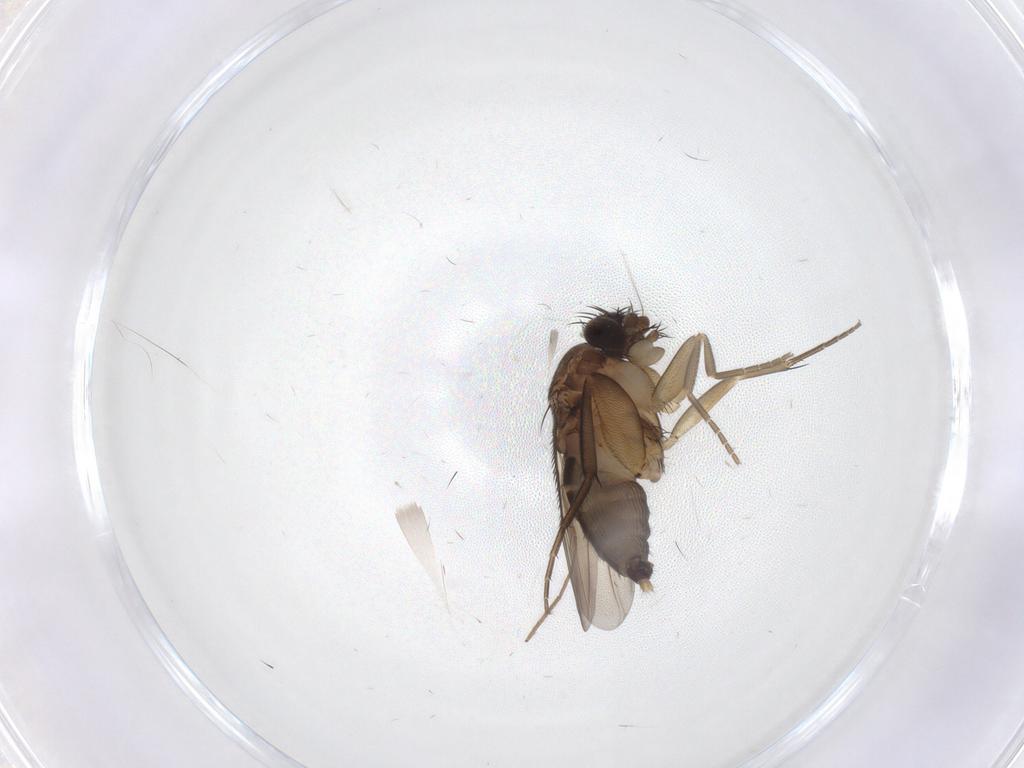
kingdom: Animalia
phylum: Arthropoda
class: Insecta
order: Diptera
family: Phoridae
